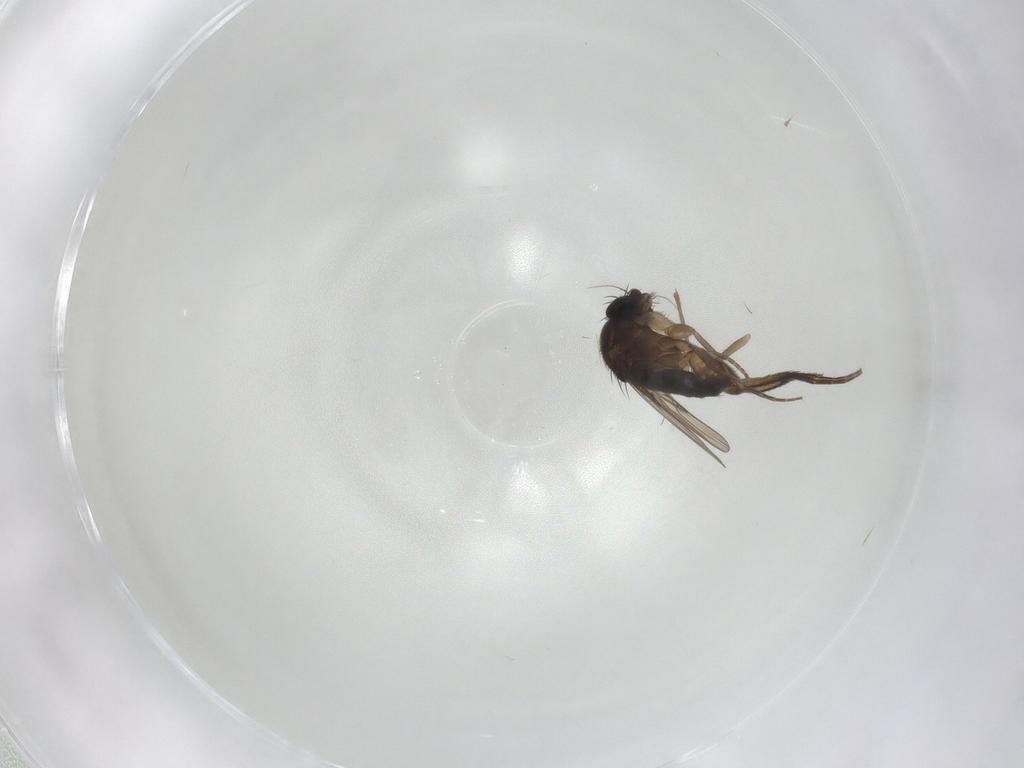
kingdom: Animalia
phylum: Arthropoda
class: Insecta
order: Diptera
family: Phoridae
